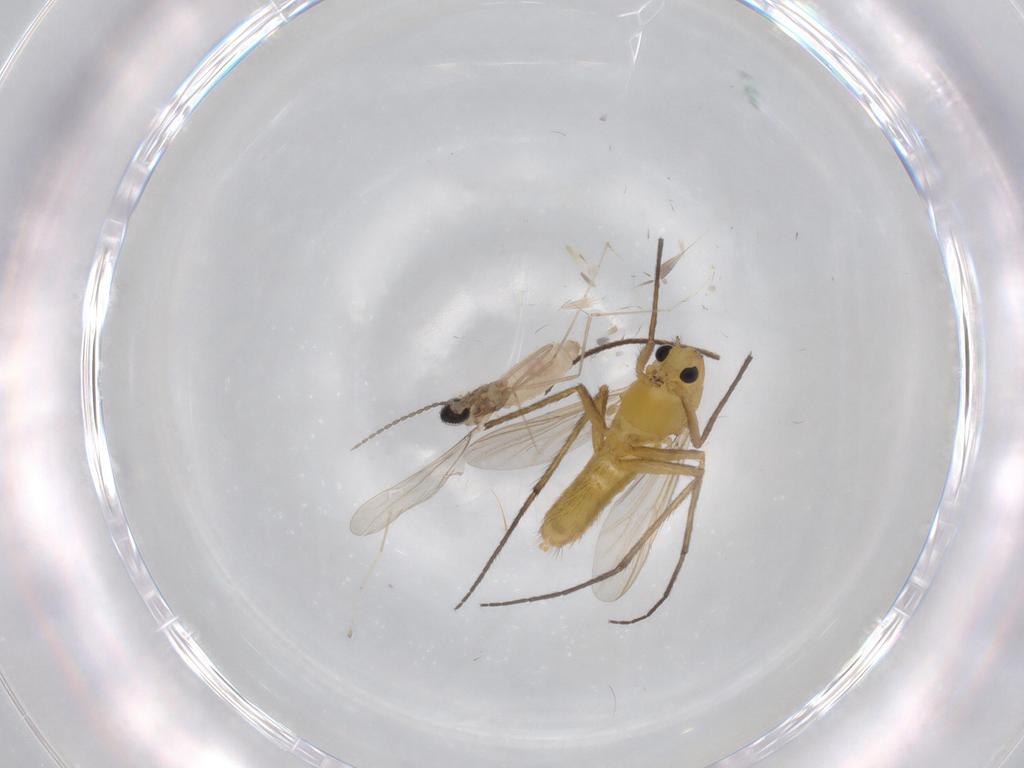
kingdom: Animalia
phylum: Arthropoda
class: Insecta
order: Diptera
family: Chironomidae
